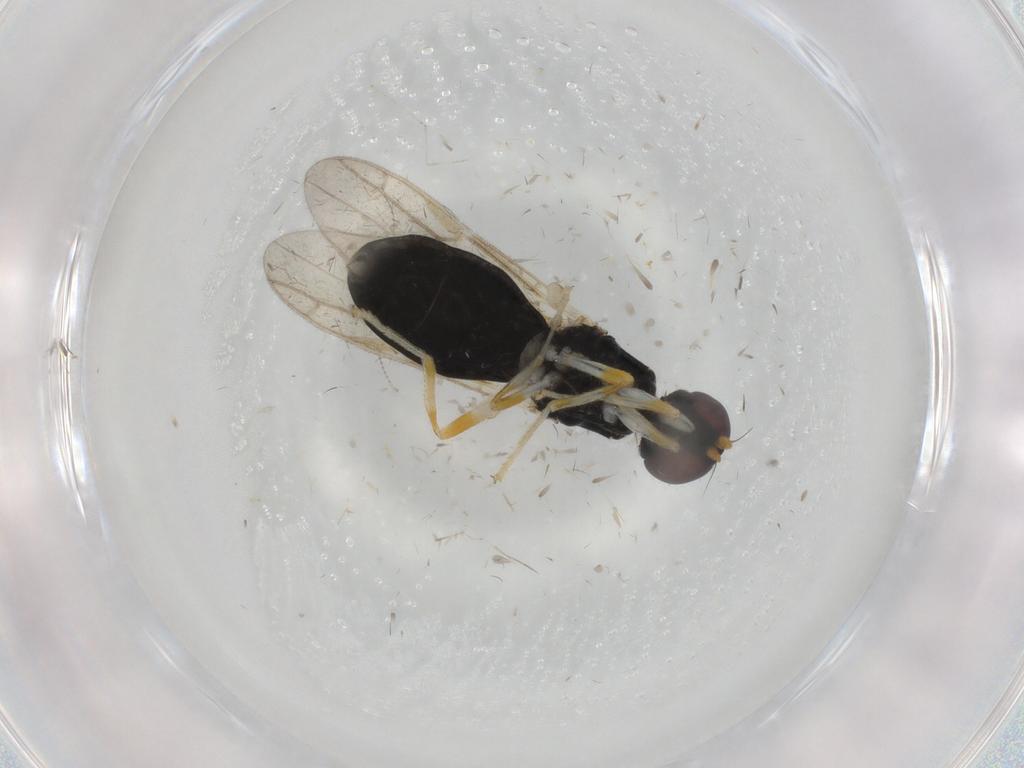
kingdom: Animalia
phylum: Arthropoda
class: Insecta
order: Diptera
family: Stratiomyidae
